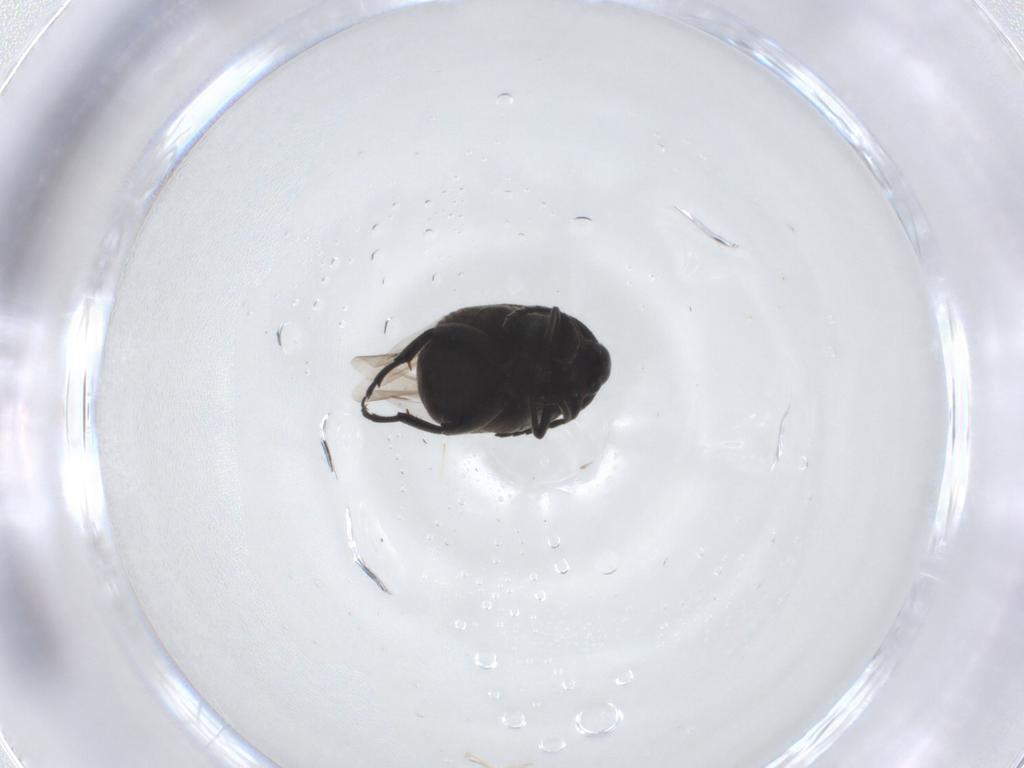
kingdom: Animalia
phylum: Arthropoda
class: Insecta
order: Coleoptera
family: Chrysomelidae
